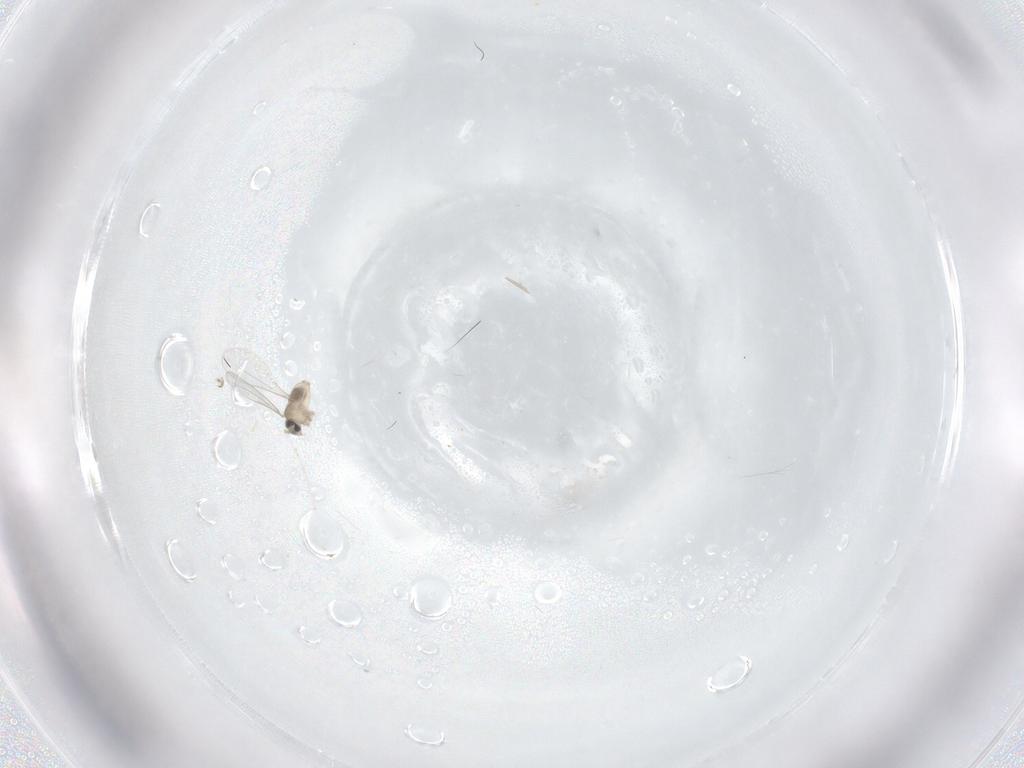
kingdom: Animalia
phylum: Arthropoda
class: Insecta
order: Diptera
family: Cecidomyiidae
